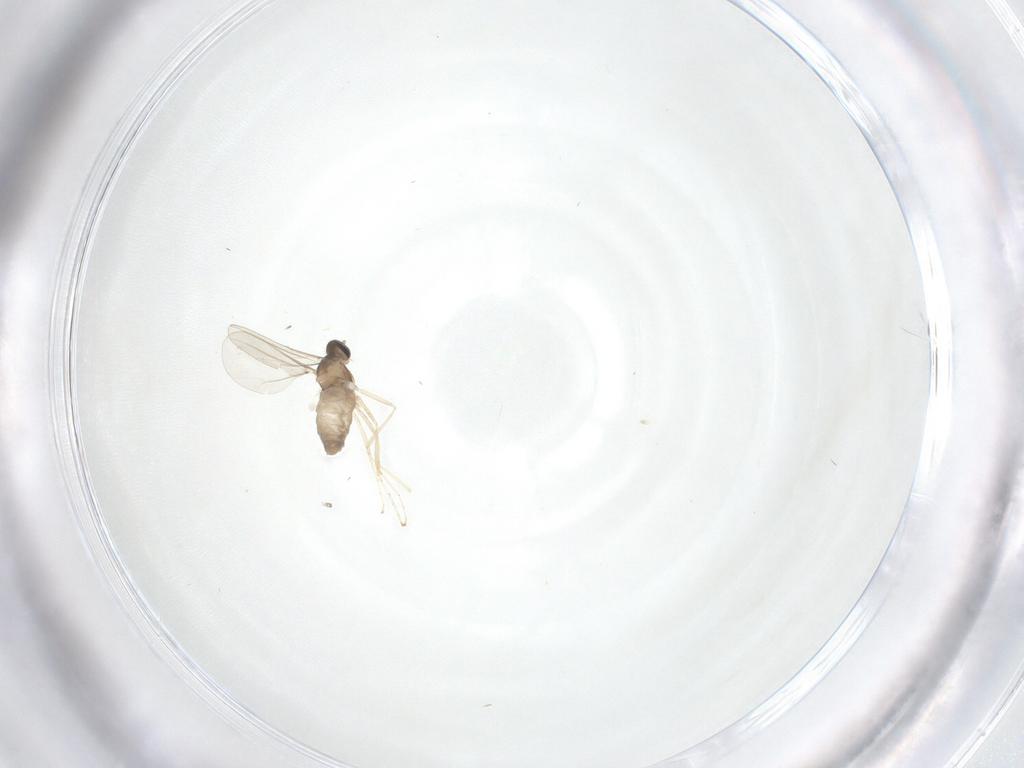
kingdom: Animalia
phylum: Arthropoda
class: Insecta
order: Diptera
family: Cecidomyiidae
